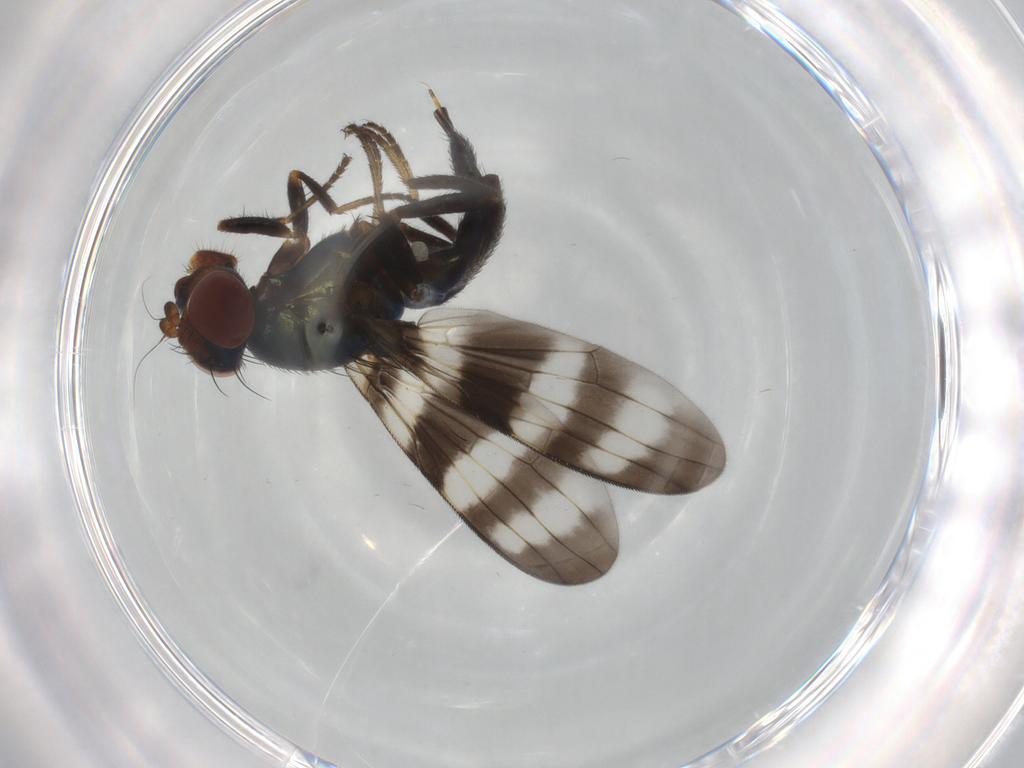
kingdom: Animalia
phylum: Arthropoda
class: Insecta
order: Diptera
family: Ulidiidae
